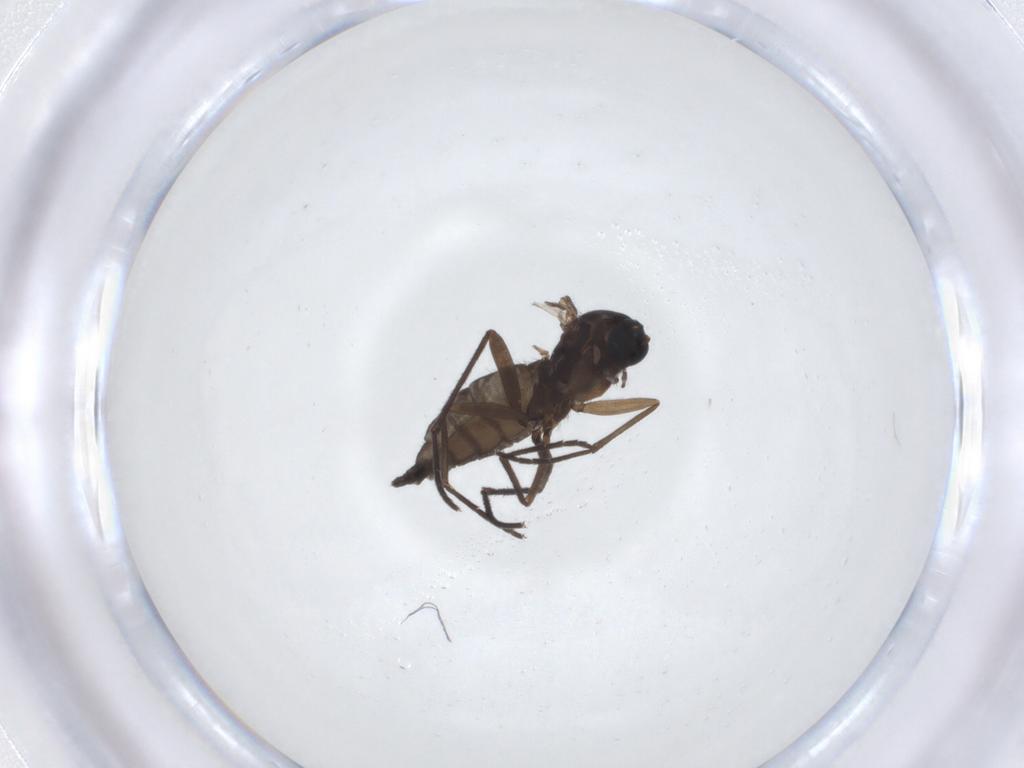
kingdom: Animalia
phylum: Arthropoda
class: Insecta
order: Diptera
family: Sciaridae
